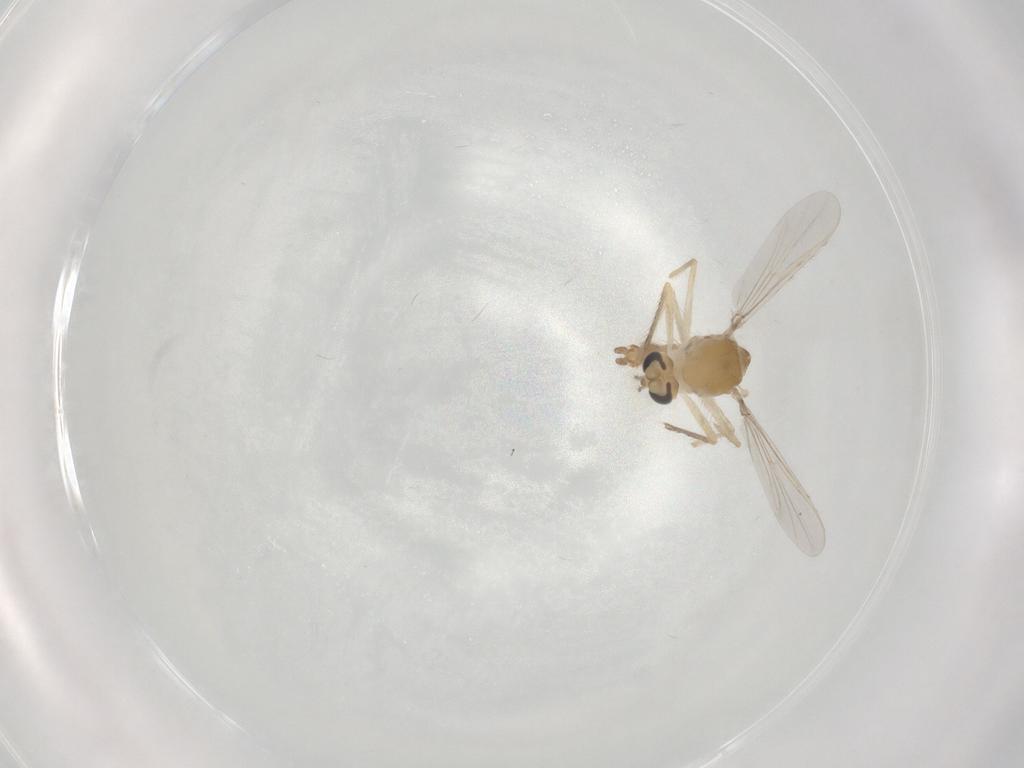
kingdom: Animalia
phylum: Arthropoda
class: Insecta
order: Diptera
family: Chironomidae
